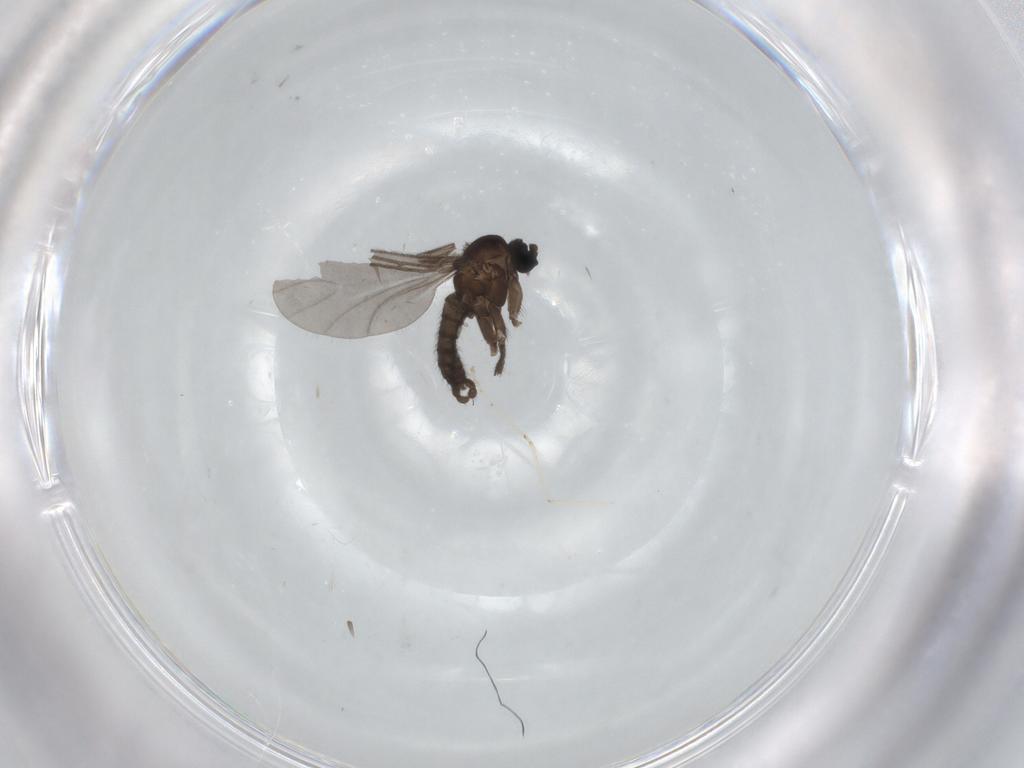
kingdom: Animalia
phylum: Arthropoda
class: Insecta
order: Diptera
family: Sciaridae
